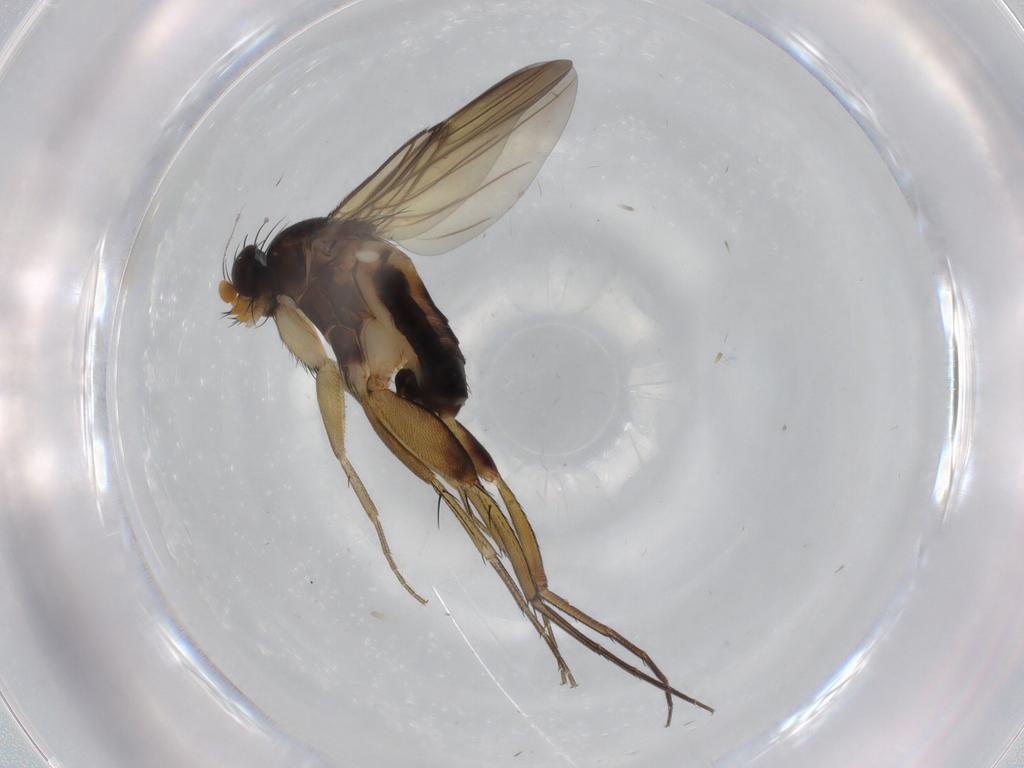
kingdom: Animalia
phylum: Arthropoda
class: Insecta
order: Diptera
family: Phoridae
